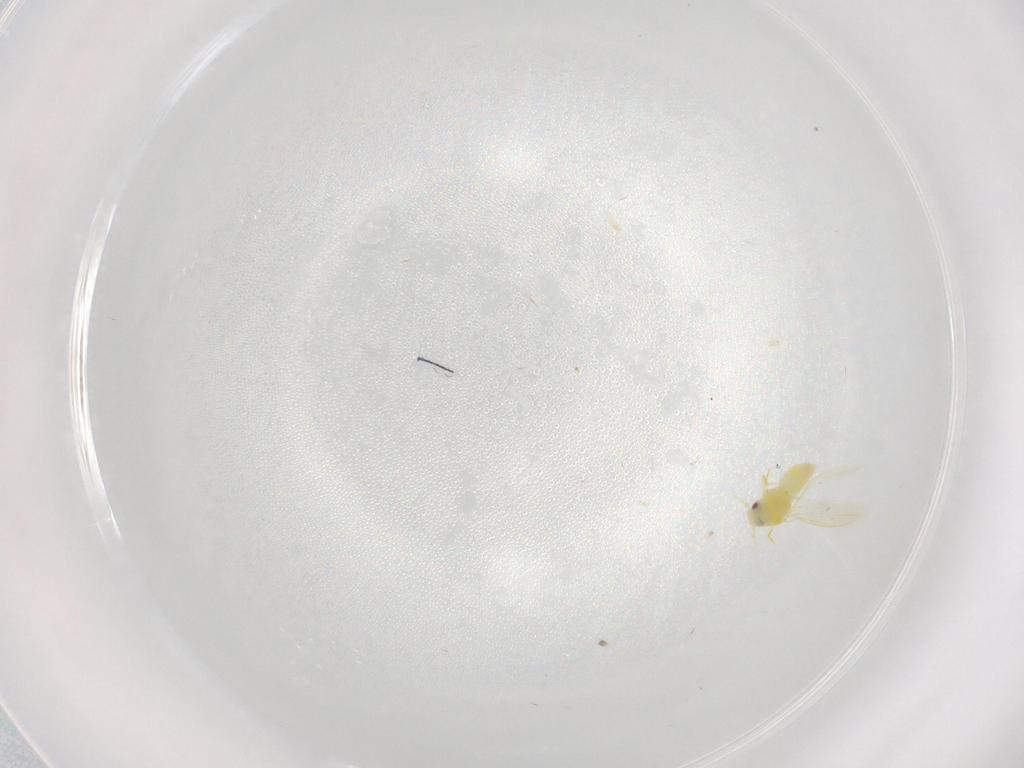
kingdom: Animalia
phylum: Arthropoda
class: Insecta
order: Hemiptera
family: Aleyrodidae
